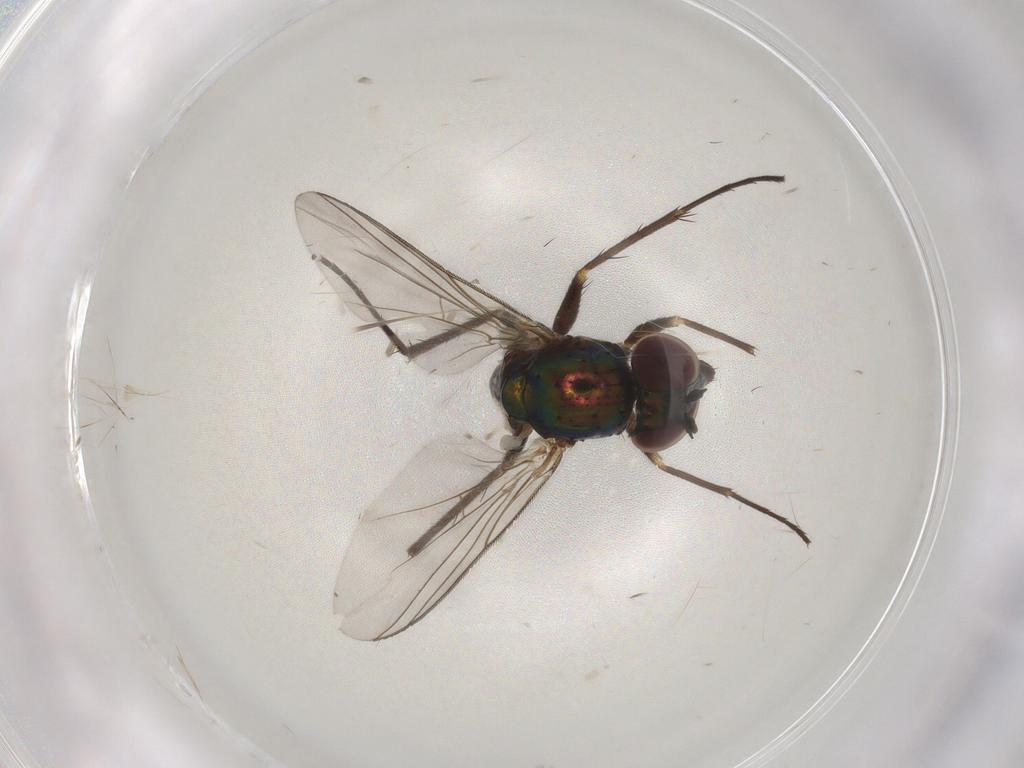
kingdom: Animalia
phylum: Arthropoda
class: Insecta
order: Diptera
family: Dolichopodidae
